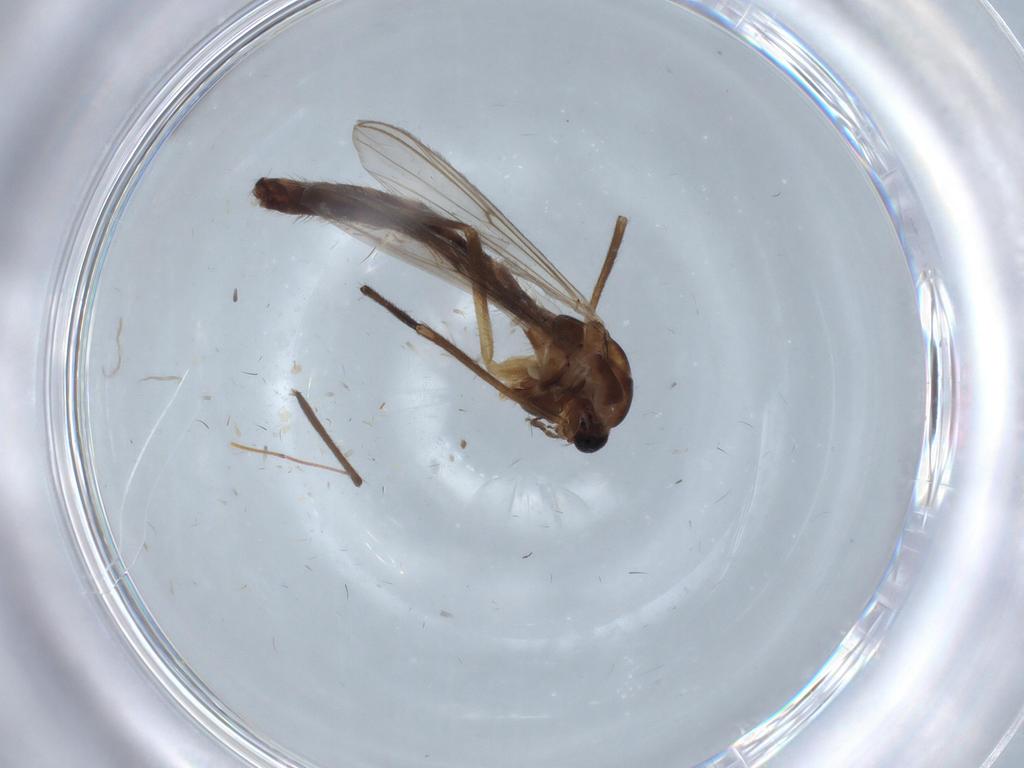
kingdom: Animalia
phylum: Arthropoda
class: Insecta
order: Diptera
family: Chironomidae
